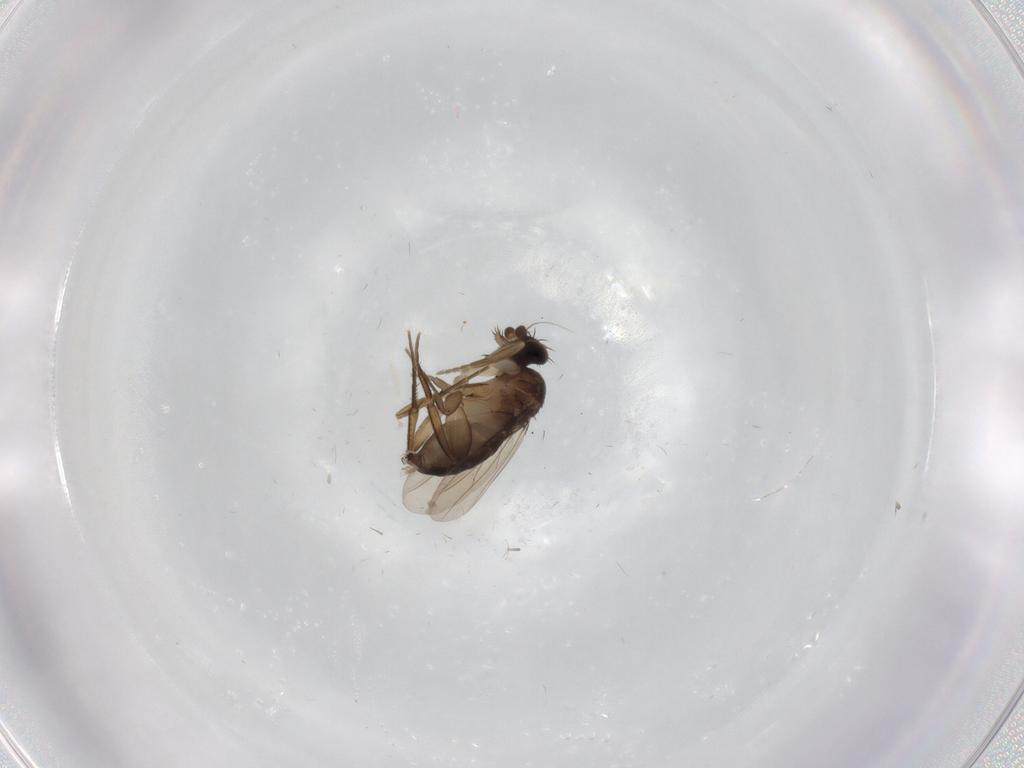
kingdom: Animalia
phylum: Arthropoda
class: Insecta
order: Diptera
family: Phoridae
